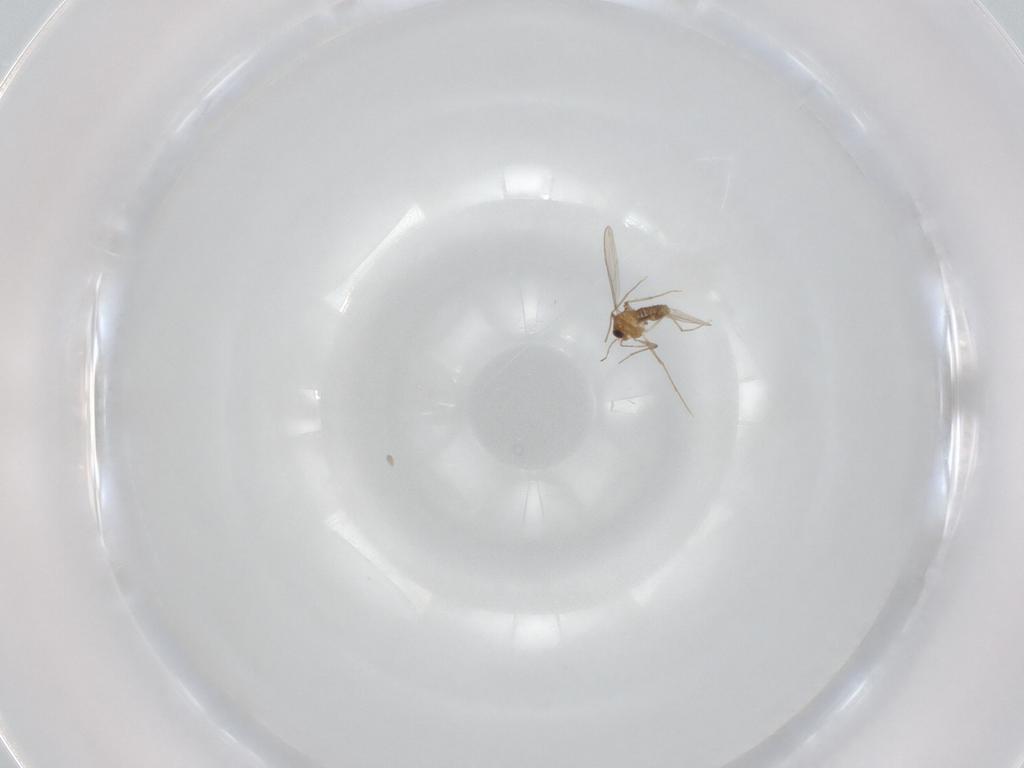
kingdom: Animalia
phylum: Arthropoda
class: Insecta
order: Diptera
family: Chironomidae
